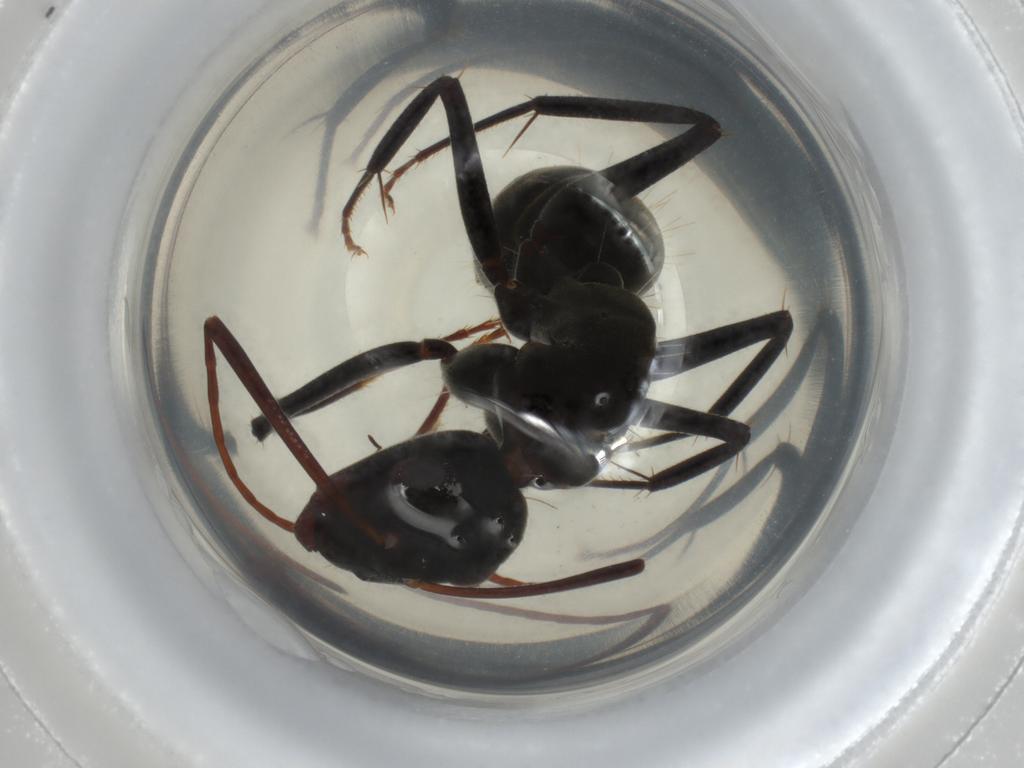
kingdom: Animalia
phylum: Arthropoda
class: Insecta
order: Hymenoptera
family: Formicidae
